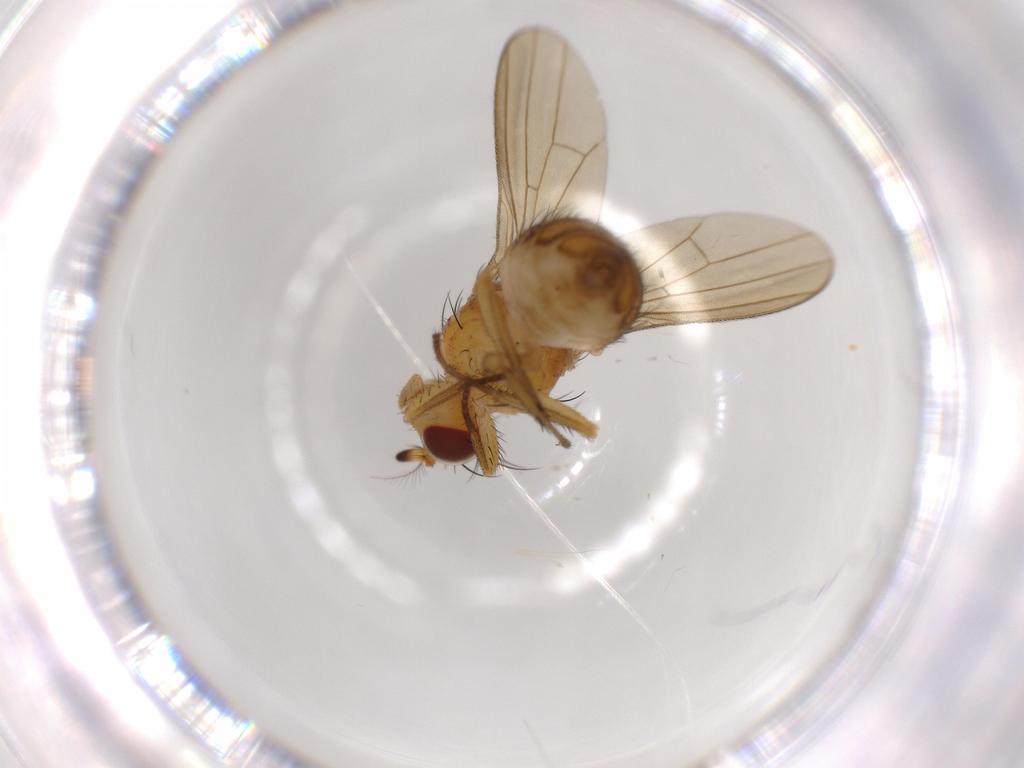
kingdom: Animalia
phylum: Arthropoda
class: Insecta
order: Diptera
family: Lauxaniidae
